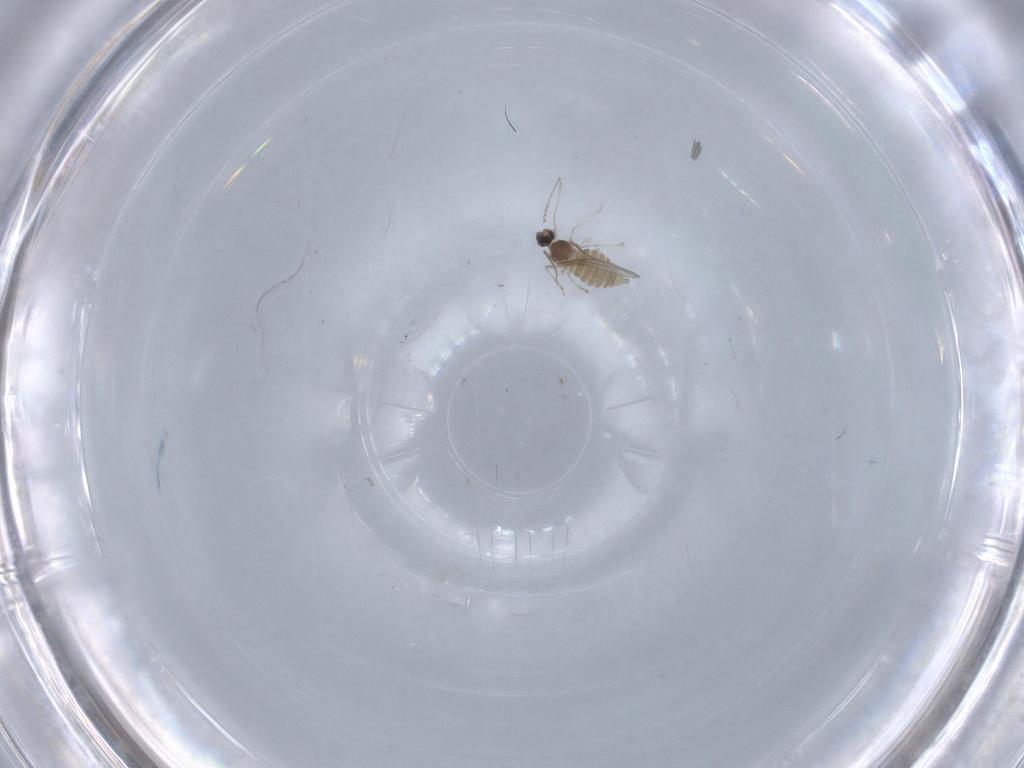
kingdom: Animalia
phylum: Arthropoda
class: Insecta
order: Diptera
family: Cecidomyiidae
